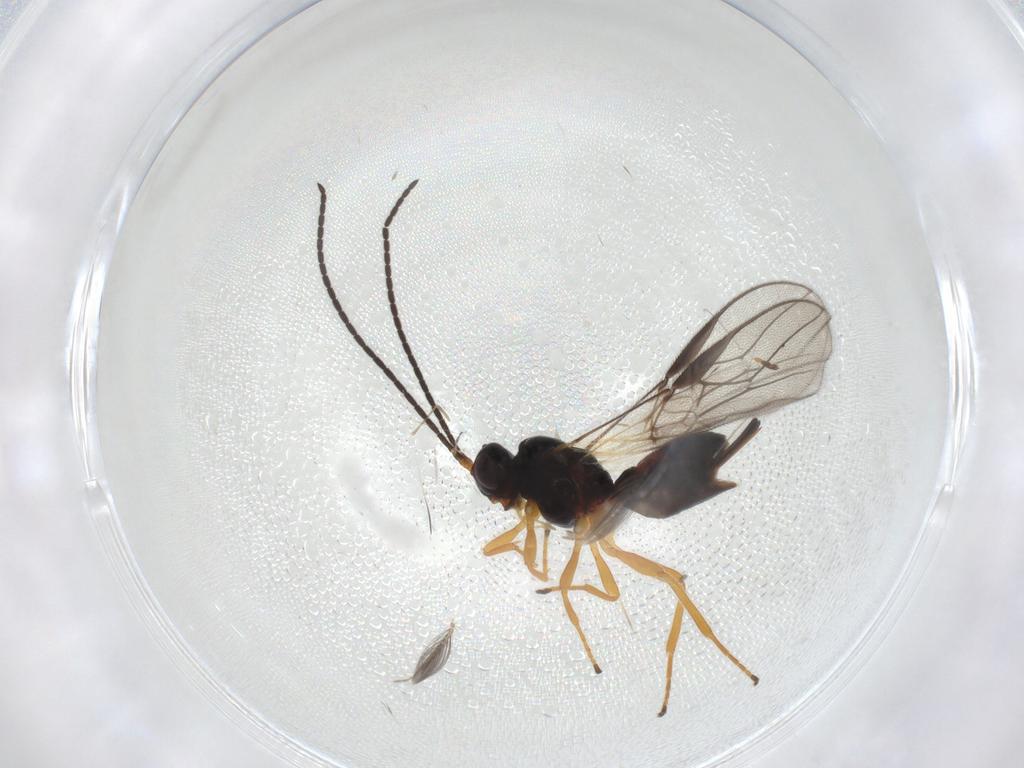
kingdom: Animalia
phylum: Arthropoda
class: Insecta
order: Hymenoptera
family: Braconidae
